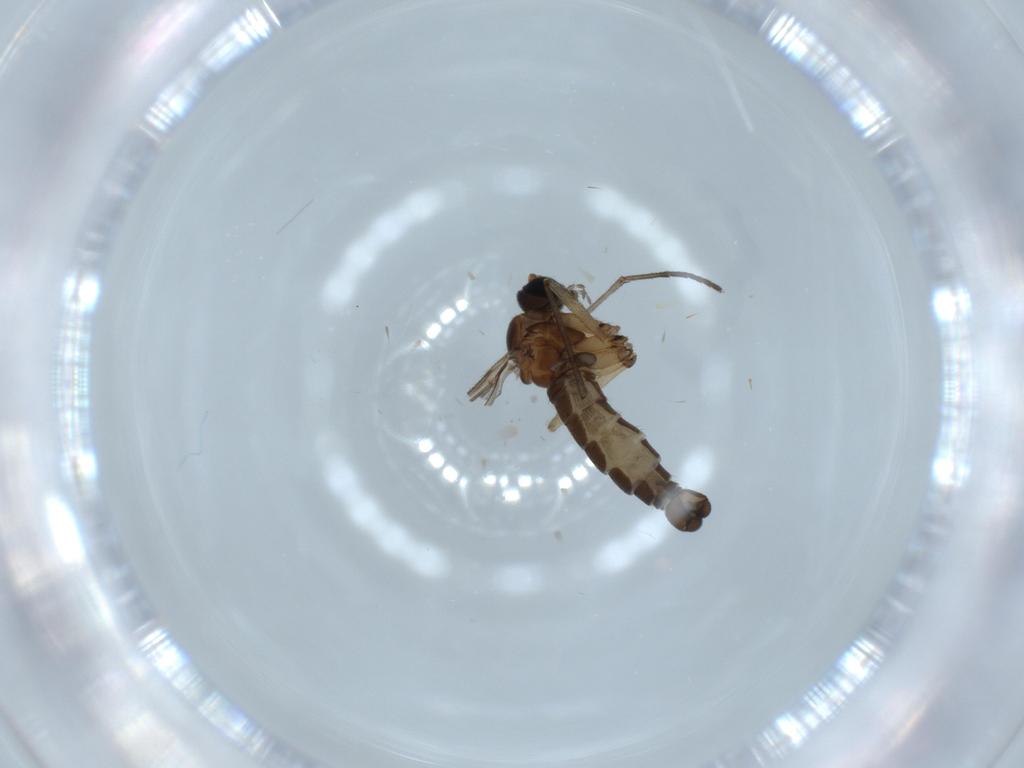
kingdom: Animalia
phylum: Arthropoda
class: Insecta
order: Diptera
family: Sciaridae
